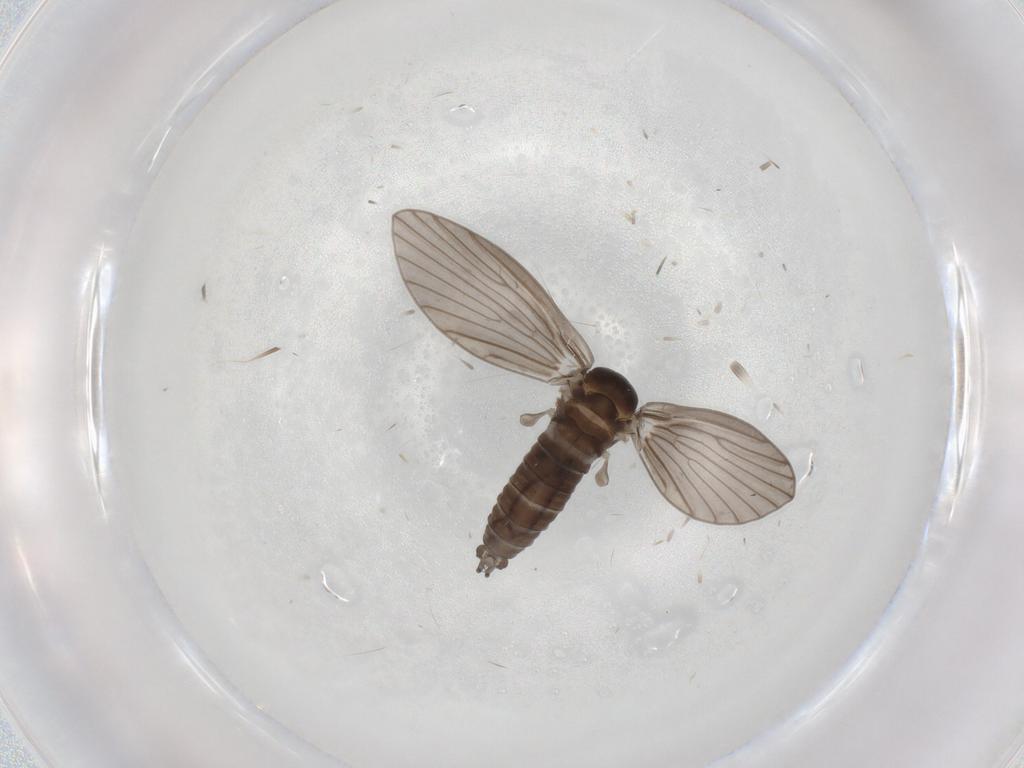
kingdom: Animalia
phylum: Arthropoda
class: Insecta
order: Diptera
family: Psychodidae
